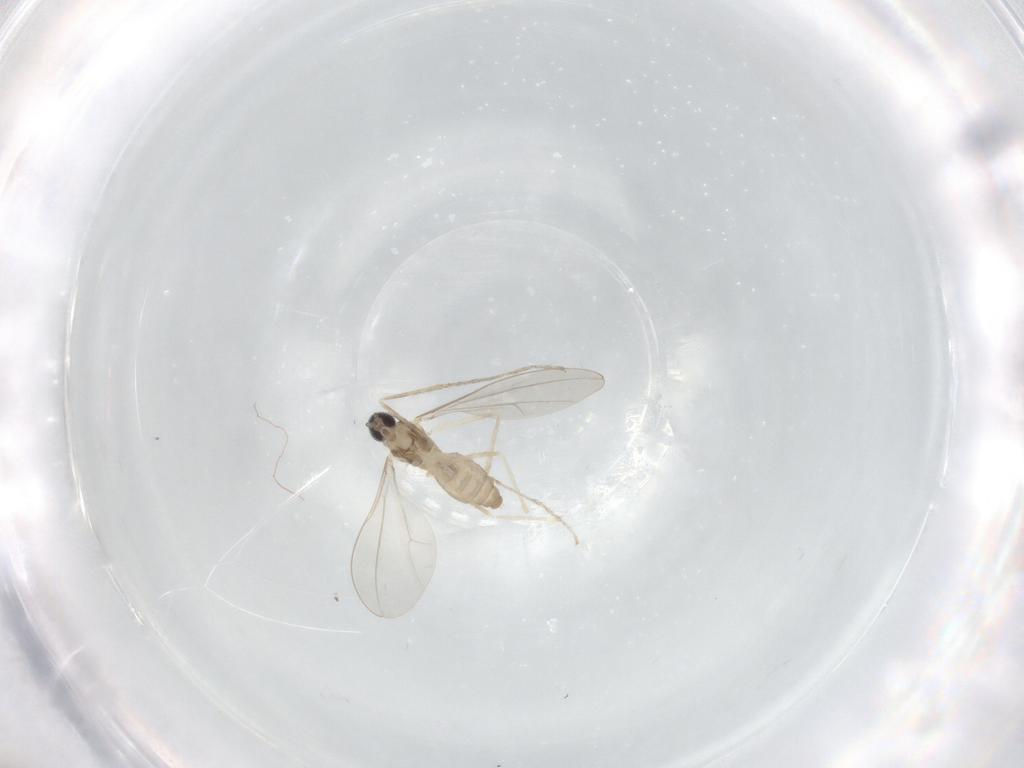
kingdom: Animalia
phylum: Arthropoda
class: Insecta
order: Diptera
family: Cecidomyiidae
